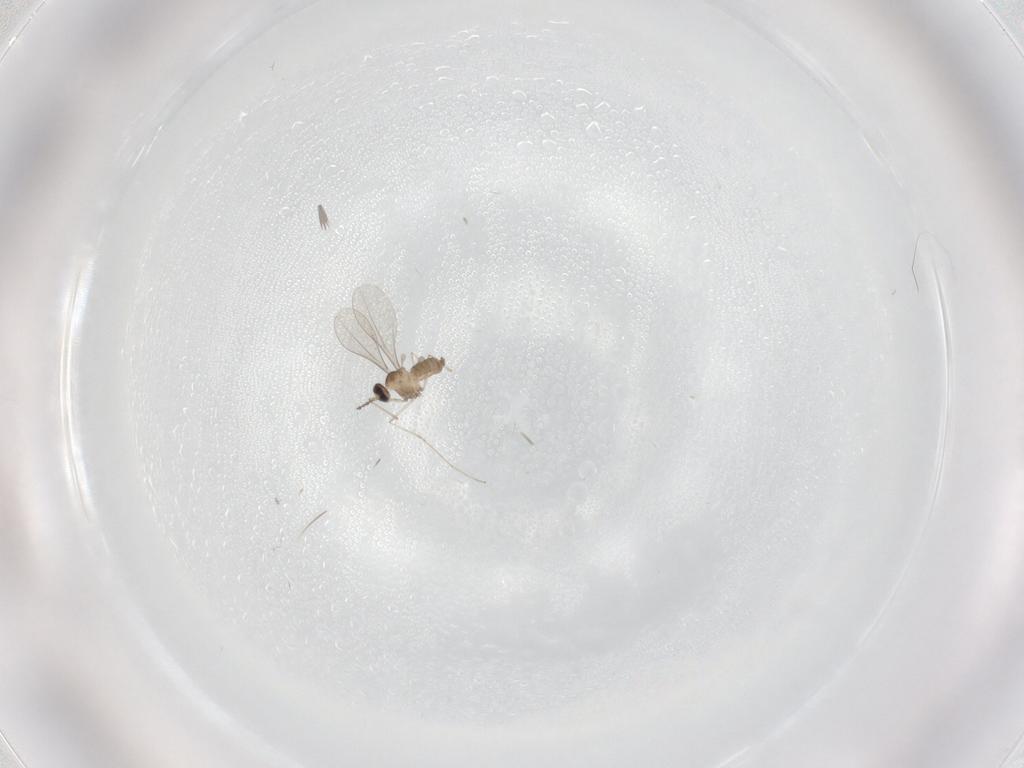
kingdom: Animalia
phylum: Arthropoda
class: Insecta
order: Diptera
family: Cecidomyiidae
